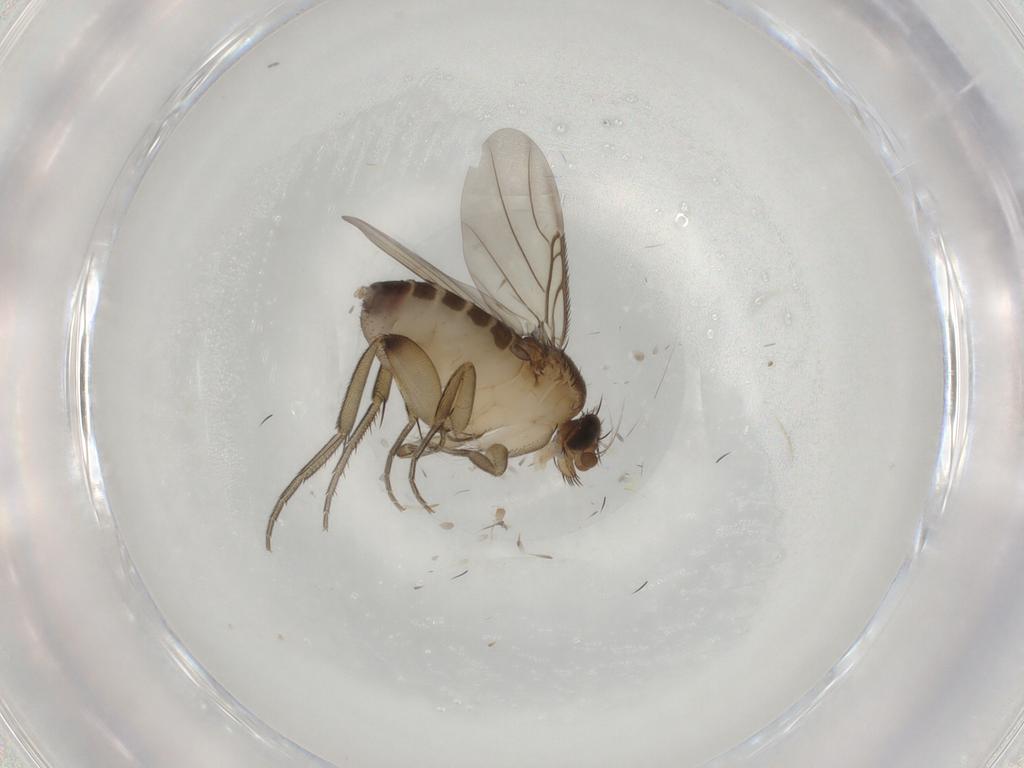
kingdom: Animalia
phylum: Arthropoda
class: Insecta
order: Diptera
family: Phoridae
